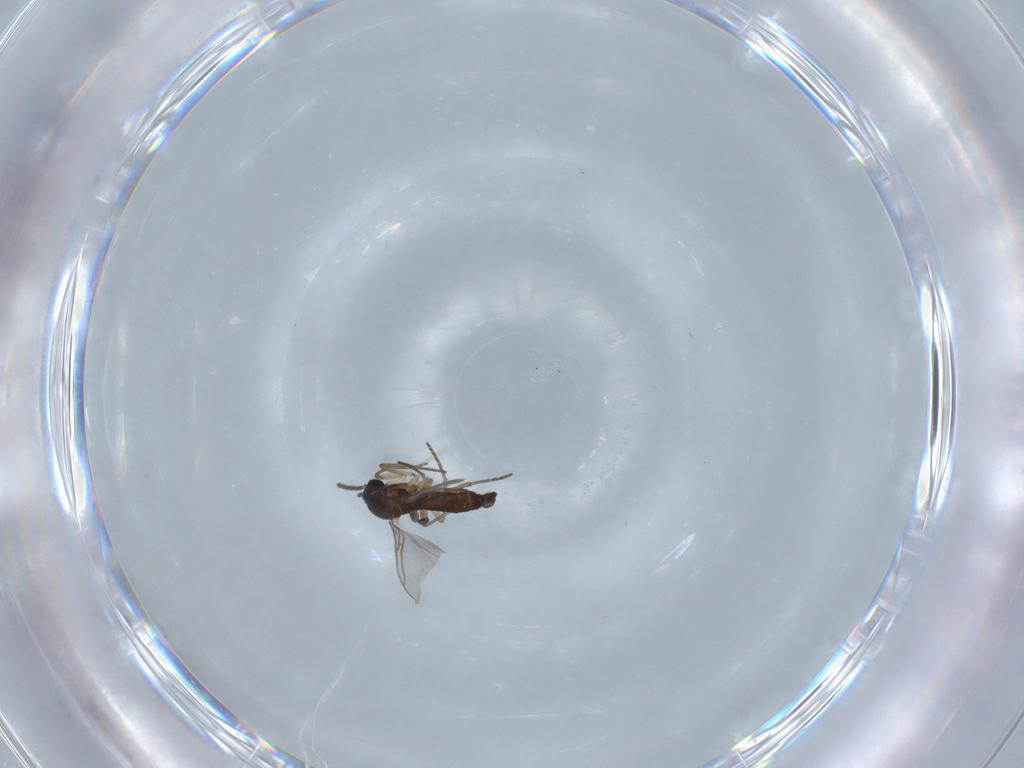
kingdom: Animalia
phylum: Arthropoda
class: Insecta
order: Diptera
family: Sciaridae
